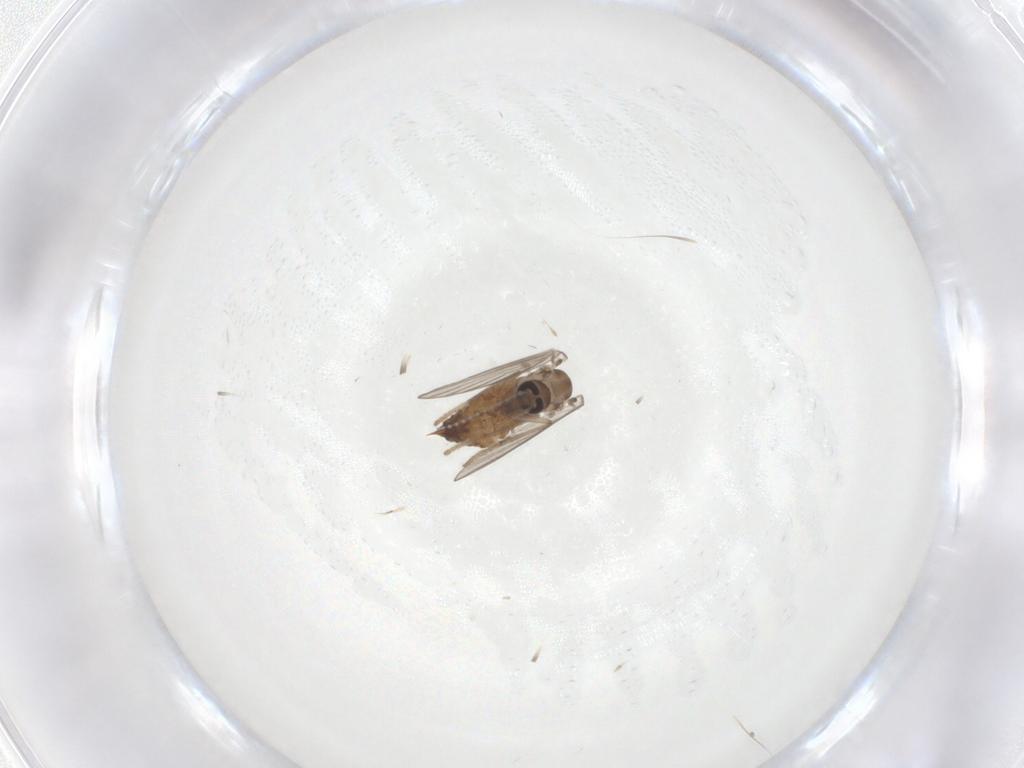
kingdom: Animalia
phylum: Arthropoda
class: Insecta
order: Diptera
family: Psychodidae
